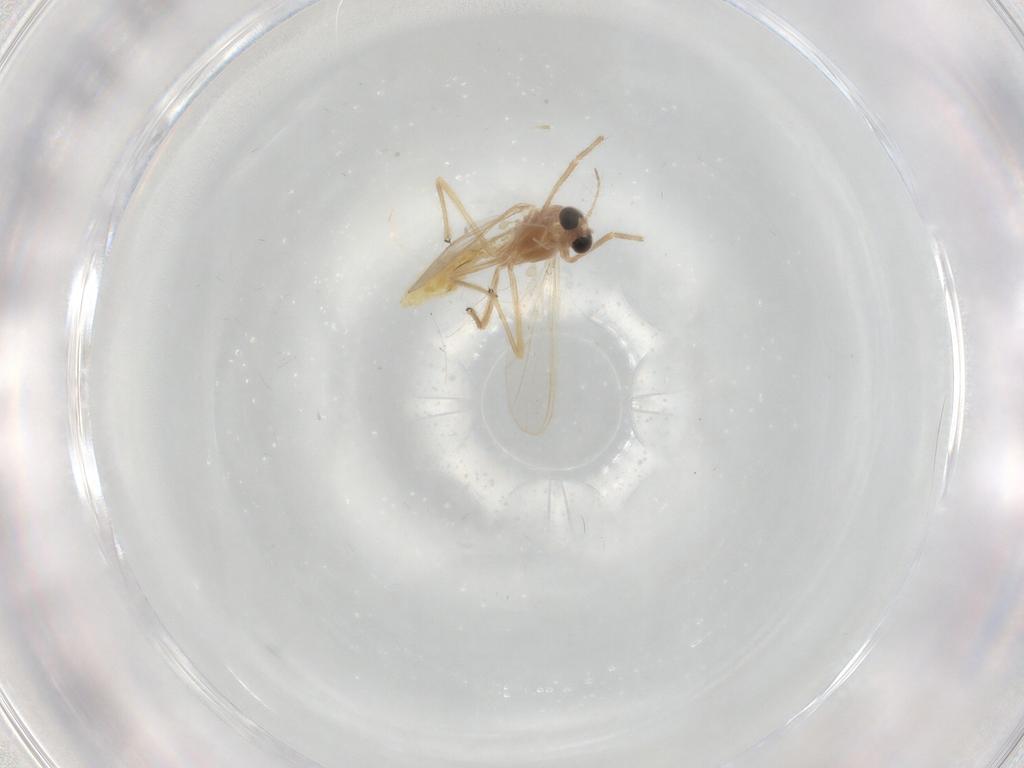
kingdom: Animalia
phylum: Arthropoda
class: Insecta
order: Diptera
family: Chironomidae
